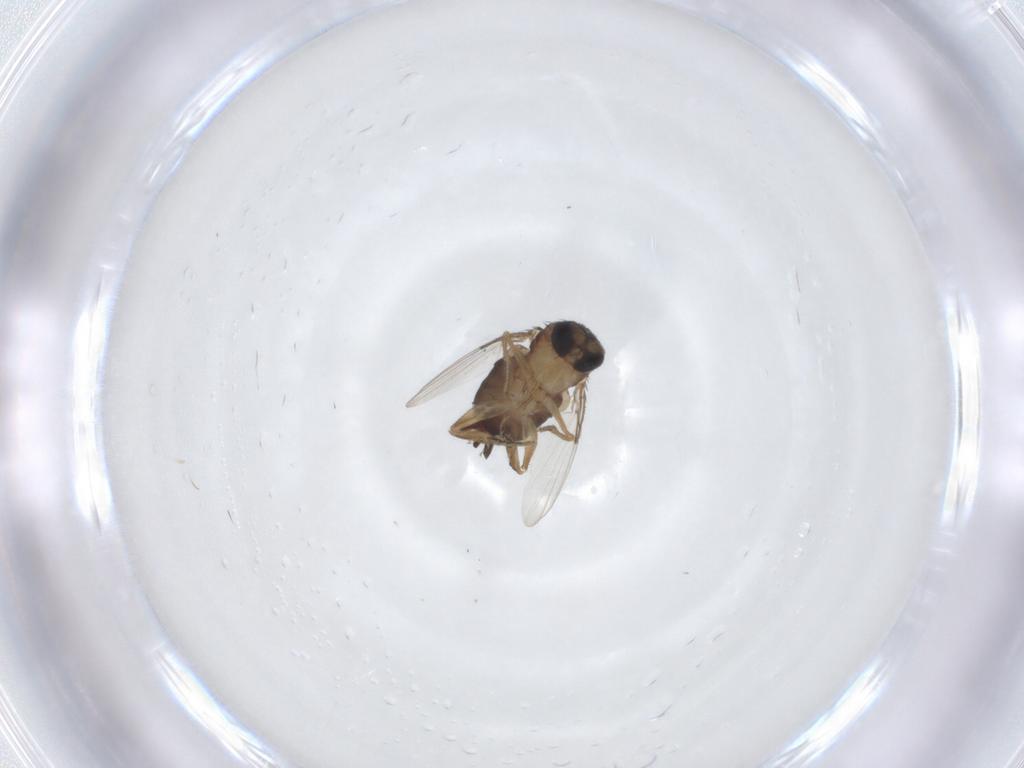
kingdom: Animalia
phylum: Arthropoda
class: Insecta
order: Diptera
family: Phoridae
